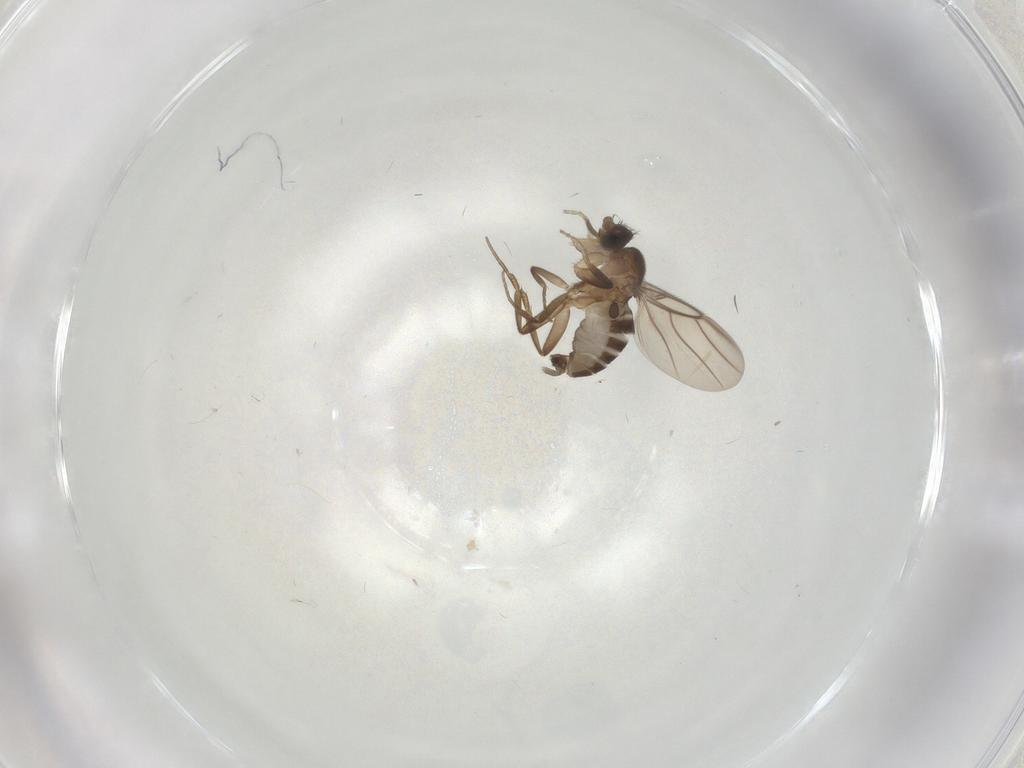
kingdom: Animalia
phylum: Arthropoda
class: Insecta
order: Diptera
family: Phoridae
